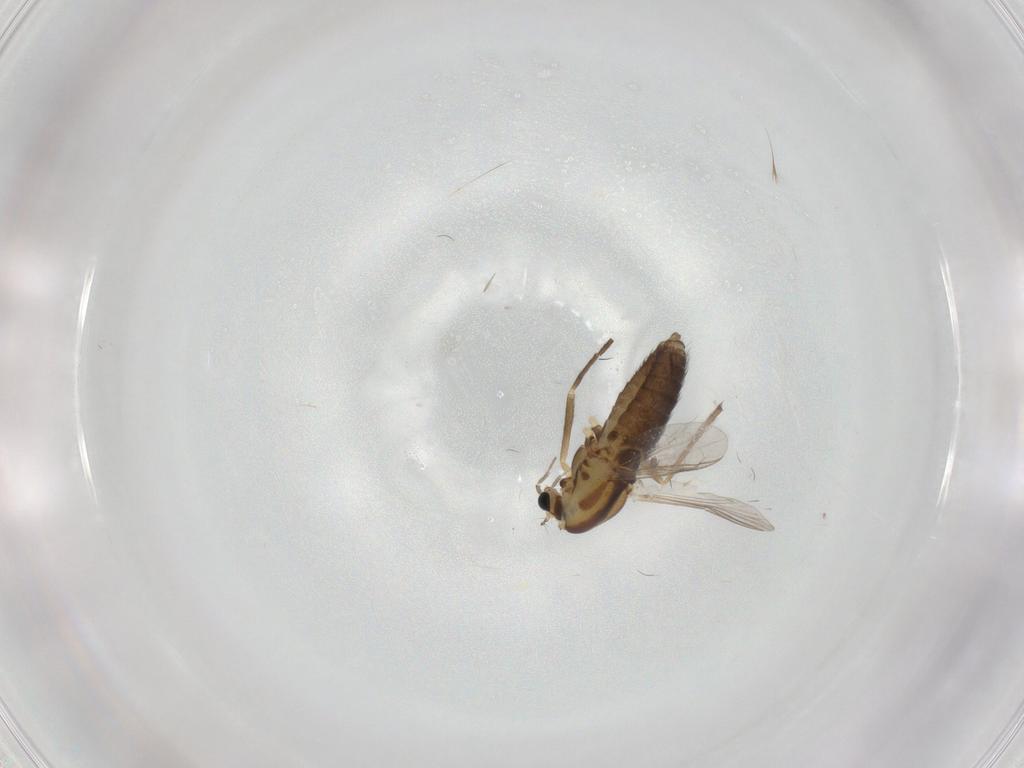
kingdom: Animalia
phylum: Arthropoda
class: Insecta
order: Diptera
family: Chironomidae
